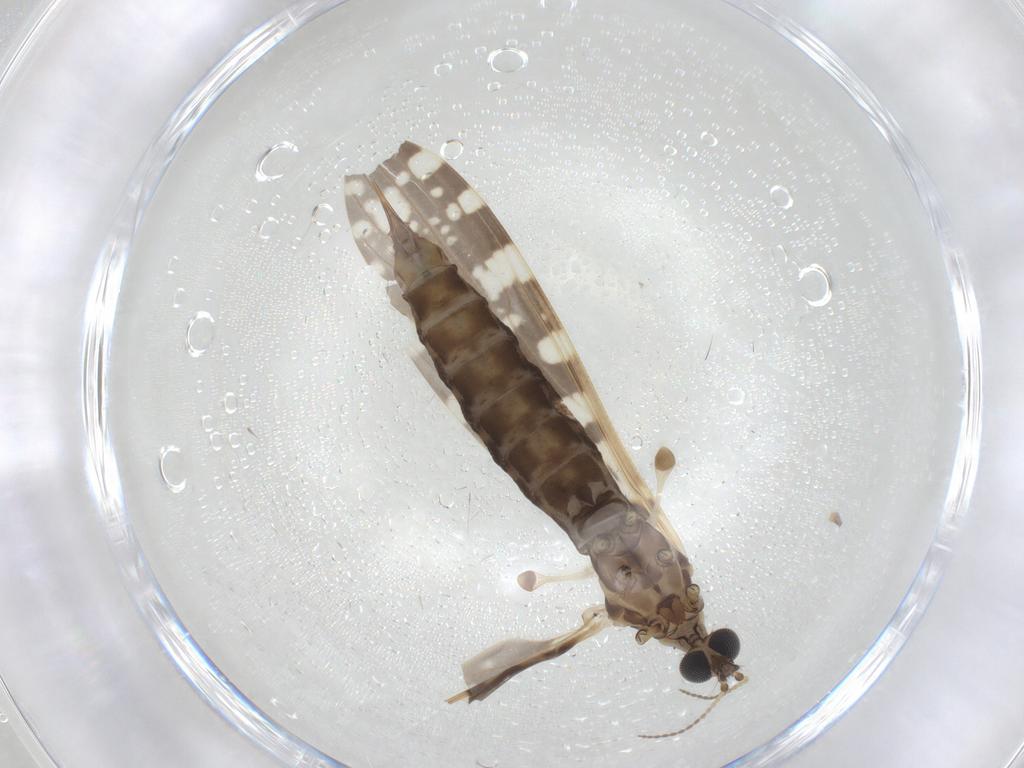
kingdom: Animalia
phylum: Arthropoda
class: Insecta
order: Diptera
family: Limoniidae
